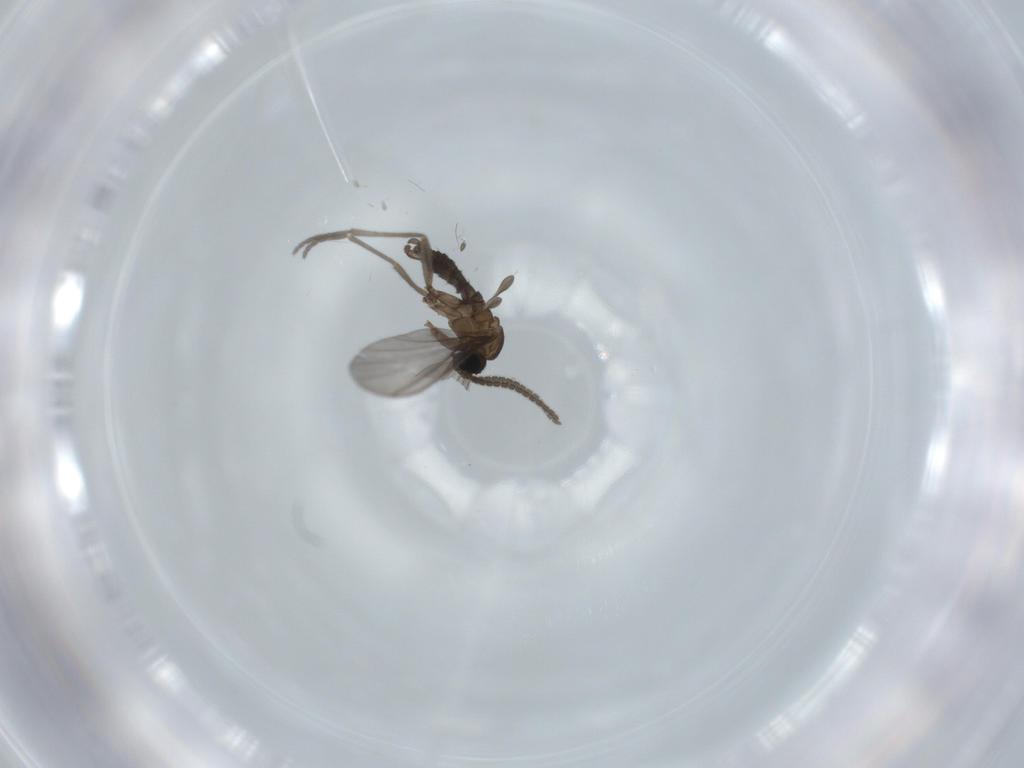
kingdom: Animalia
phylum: Arthropoda
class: Insecta
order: Diptera
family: Sciaridae
